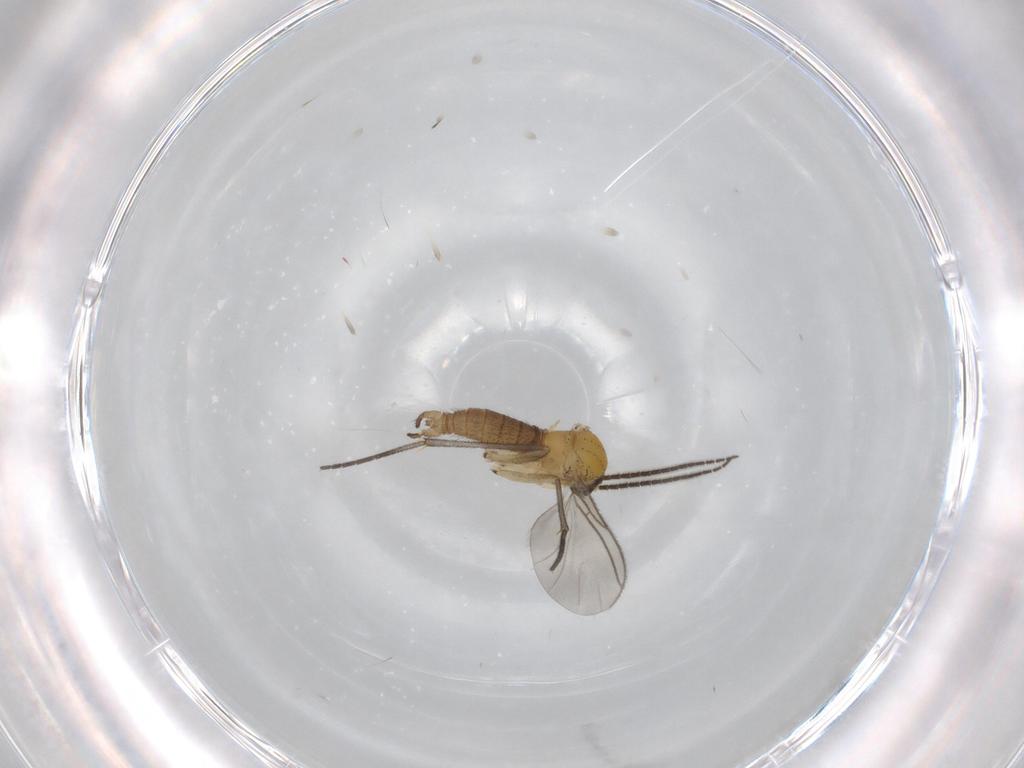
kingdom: Animalia
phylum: Arthropoda
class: Insecta
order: Diptera
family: Sciaridae
